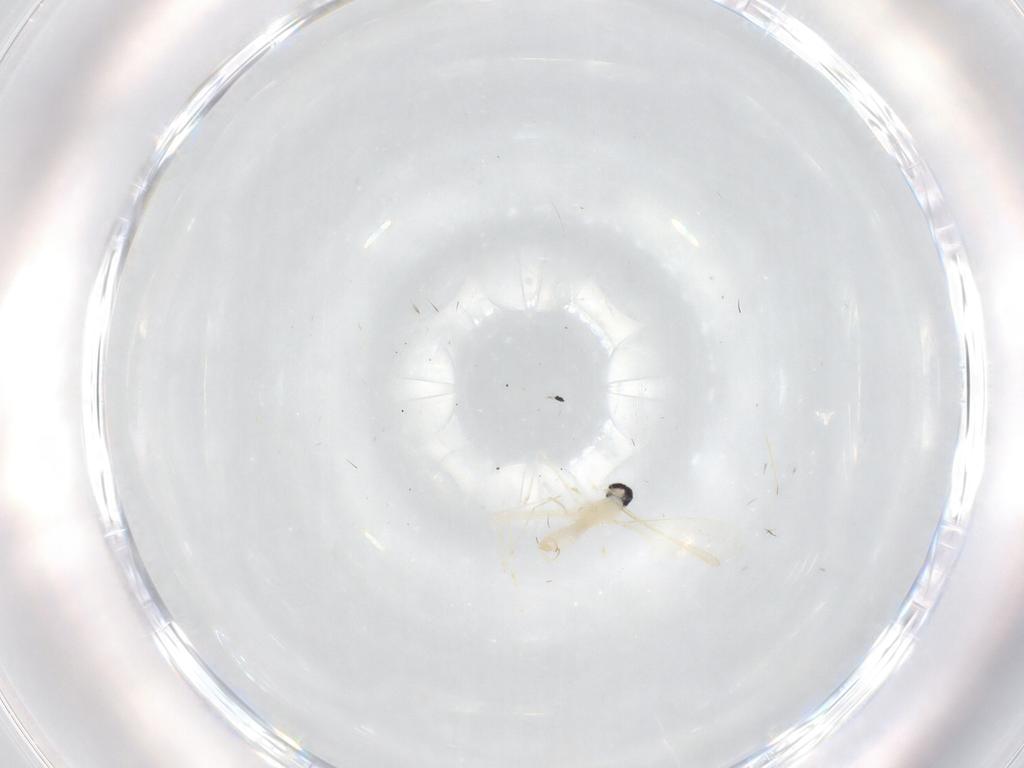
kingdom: Animalia
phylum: Arthropoda
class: Insecta
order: Diptera
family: Cecidomyiidae
